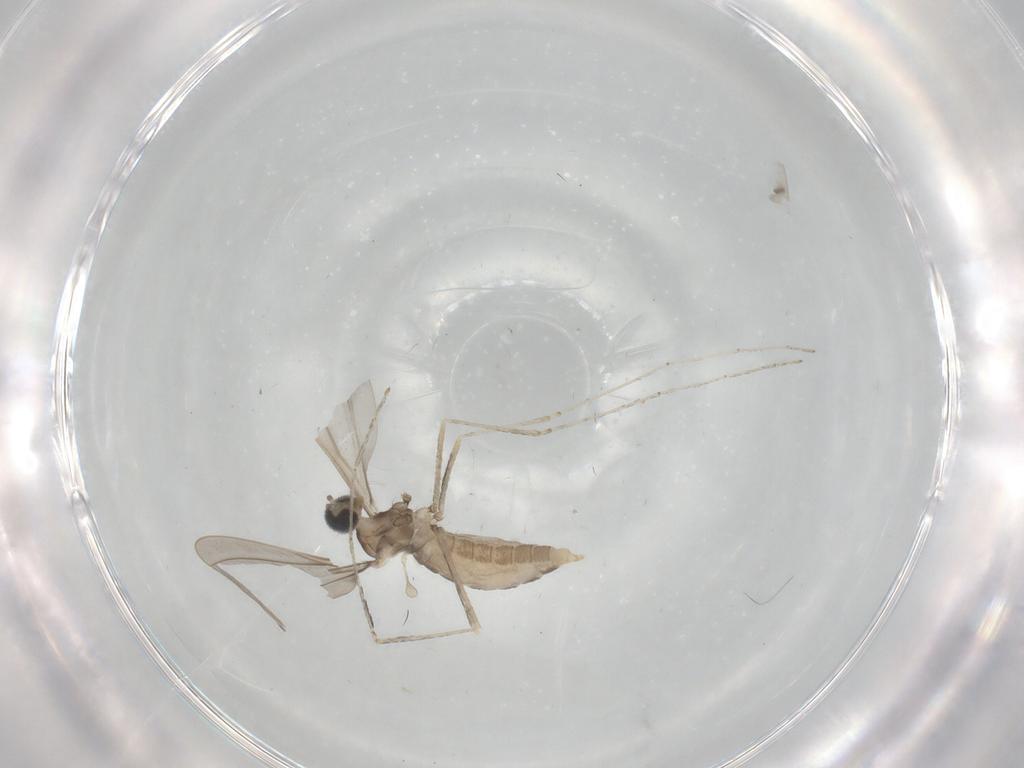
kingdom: Animalia
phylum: Arthropoda
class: Insecta
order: Diptera
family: Cecidomyiidae
